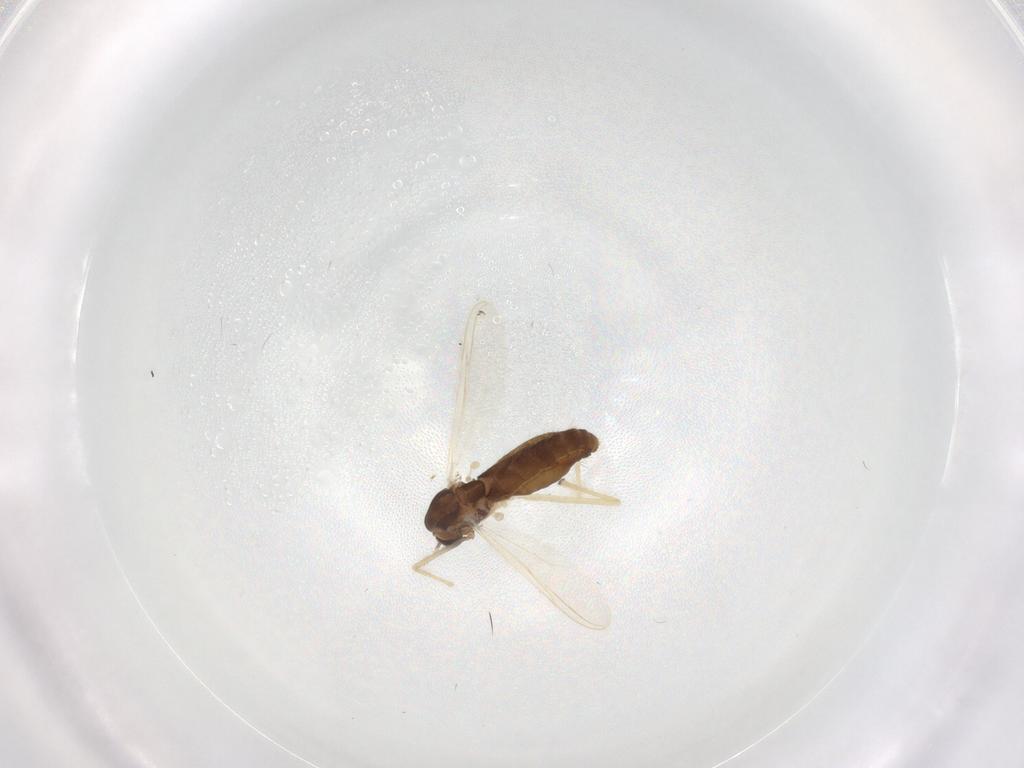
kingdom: Animalia
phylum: Arthropoda
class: Insecta
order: Diptera
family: Chironomidae
